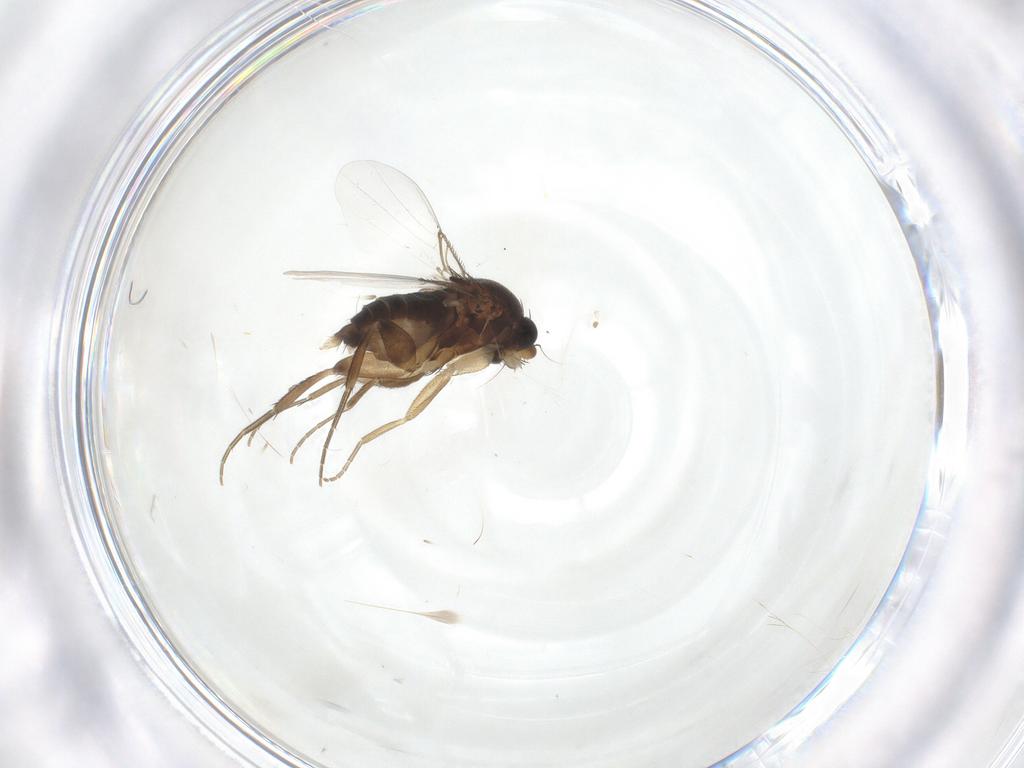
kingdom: Animalia
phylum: Arthropoda
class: Insecta
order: Diptera
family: Phoridae
